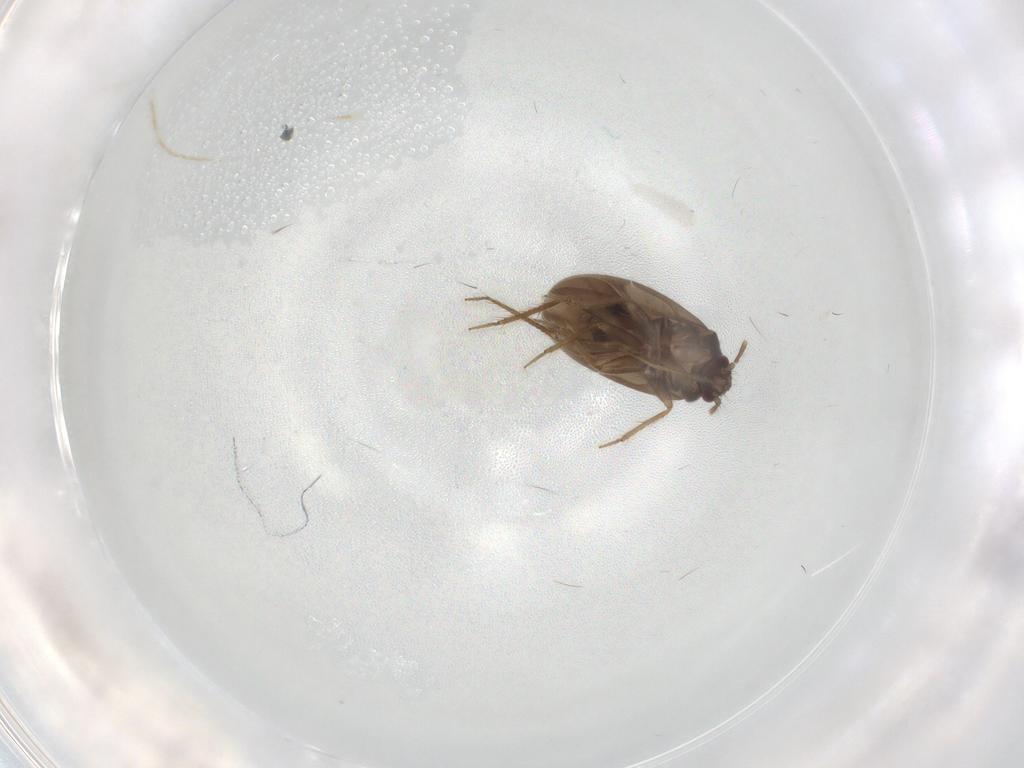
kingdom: Animalia
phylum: Arthropoda
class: Insecta
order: Hemiptera
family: Ceratocombidae
